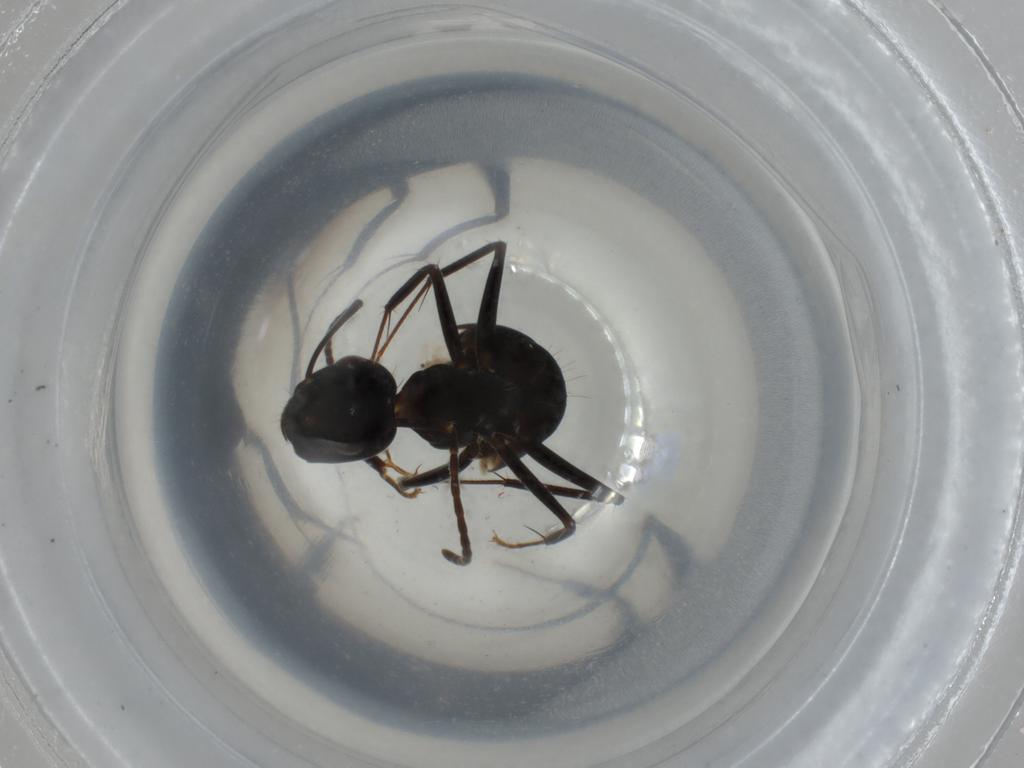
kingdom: Animalia
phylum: Arthropoda
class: Insecta
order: Hymenoptera
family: Formicidae
